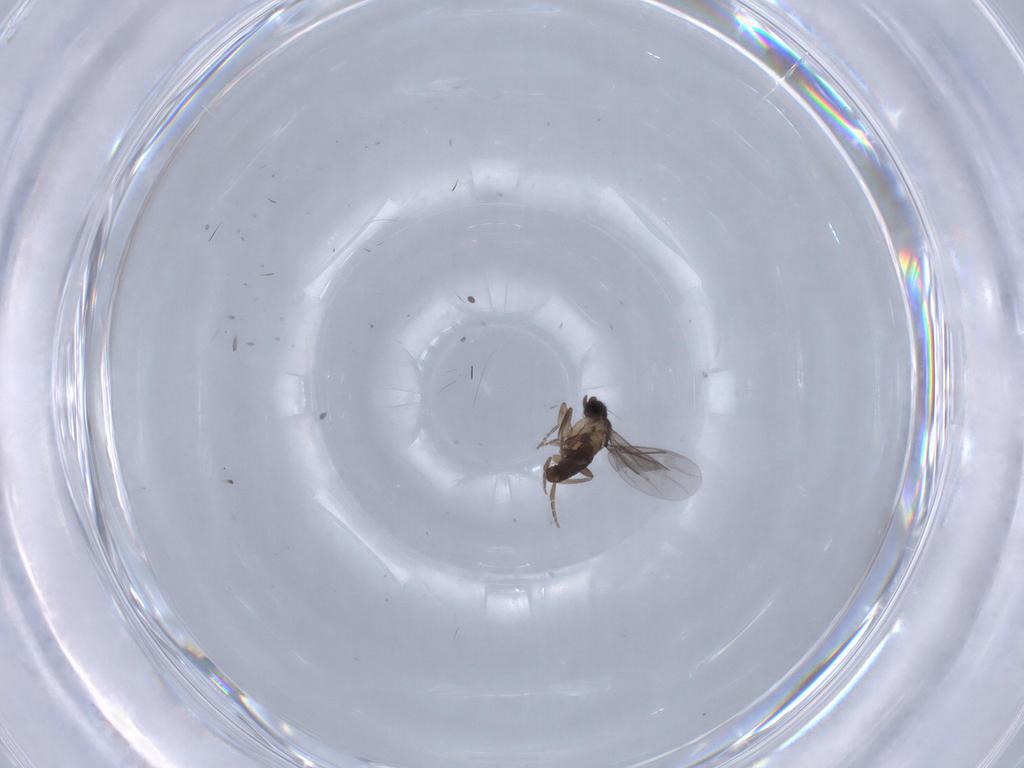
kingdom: Animalia
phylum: Arthropoda
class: Insecta
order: Diptera
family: Phoridae
